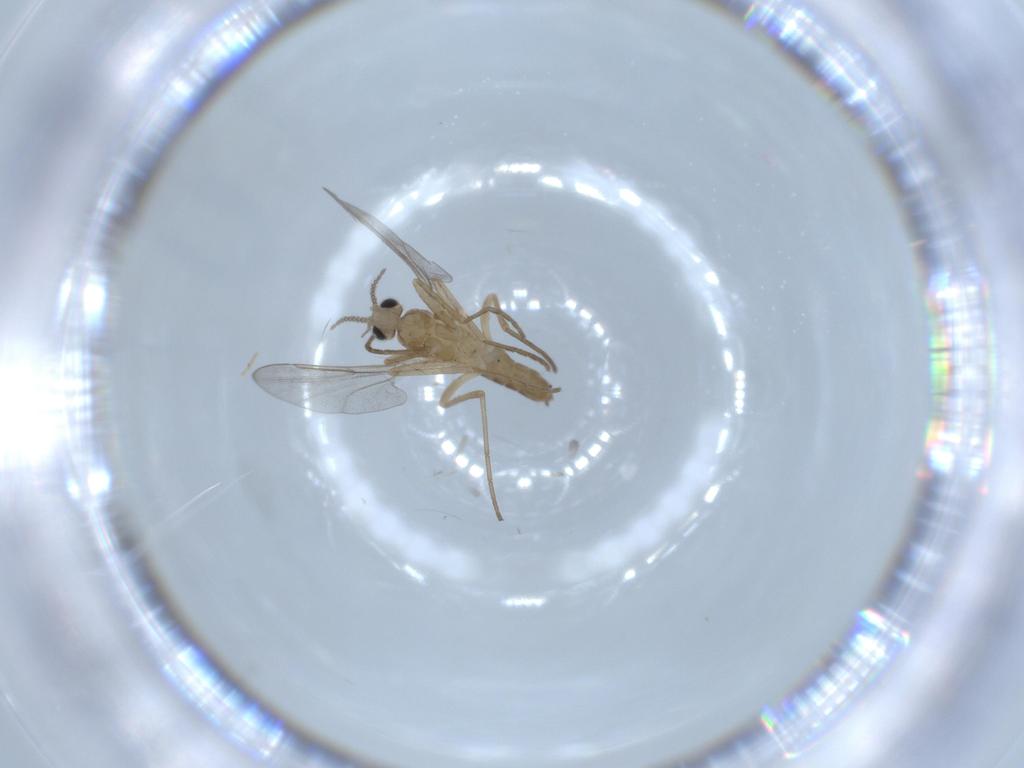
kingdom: Animalia
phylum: Arthropoda
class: Insecta
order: Diptera
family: Cecidomyiidae
